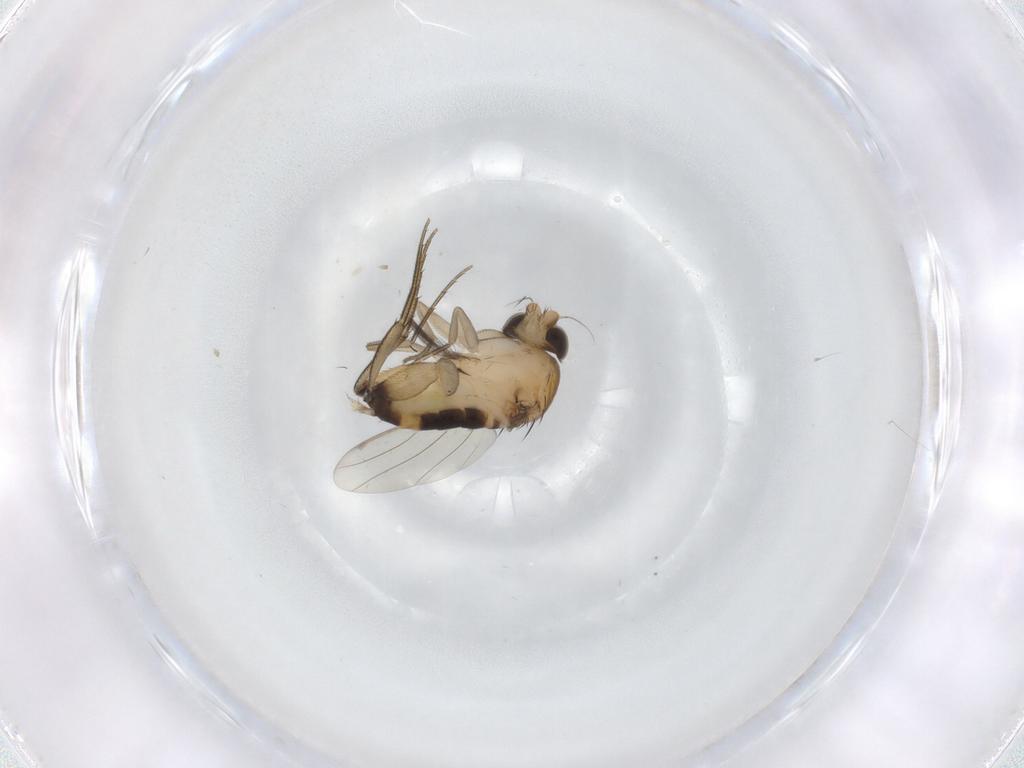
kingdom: Animalia
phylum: Arthropoda
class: Insecta
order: Diptera
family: Phoridae
